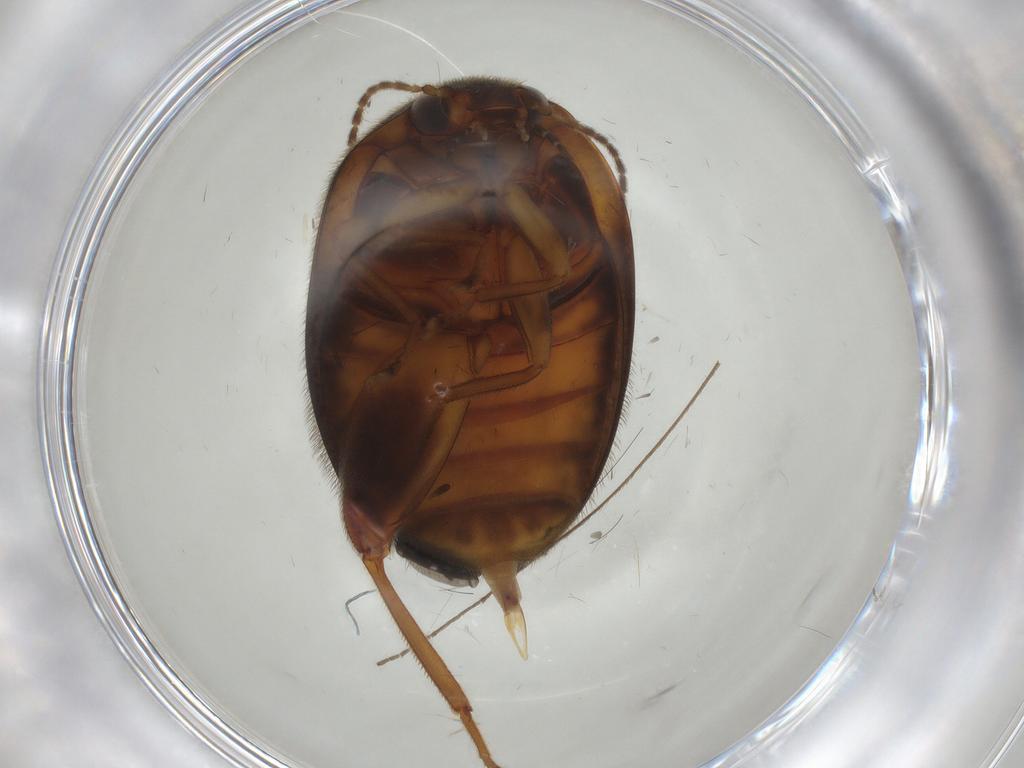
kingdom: Animalia
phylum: Arthropoda
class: Insecta
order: Coleoptera
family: Scirtidae
